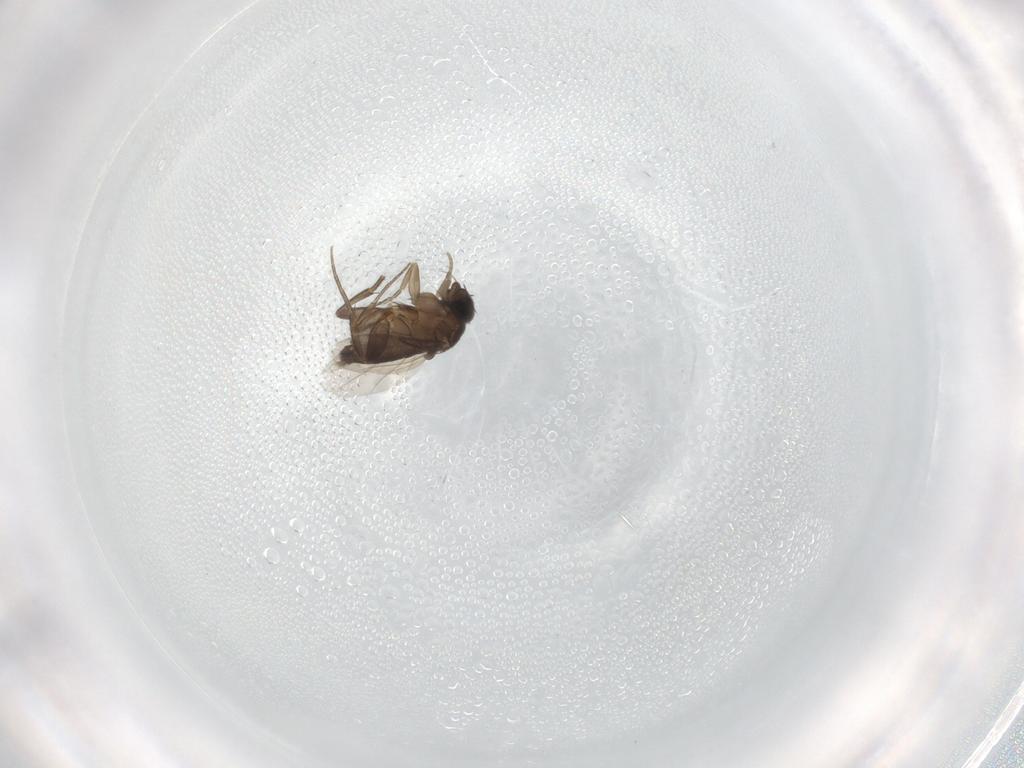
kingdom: Animalia
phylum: Arthropoda
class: Insecta
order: Diptera
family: Phoridae
